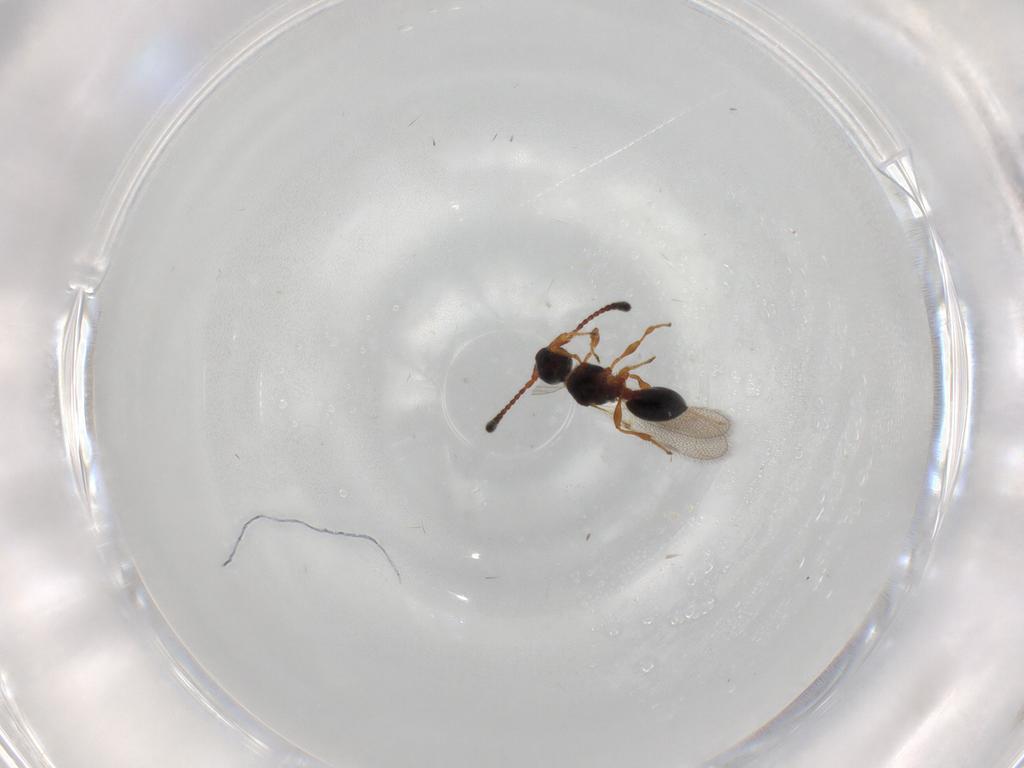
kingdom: Animalia
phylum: Arthropoda
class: Insecta
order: Hymenoptera
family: Diapriidae
